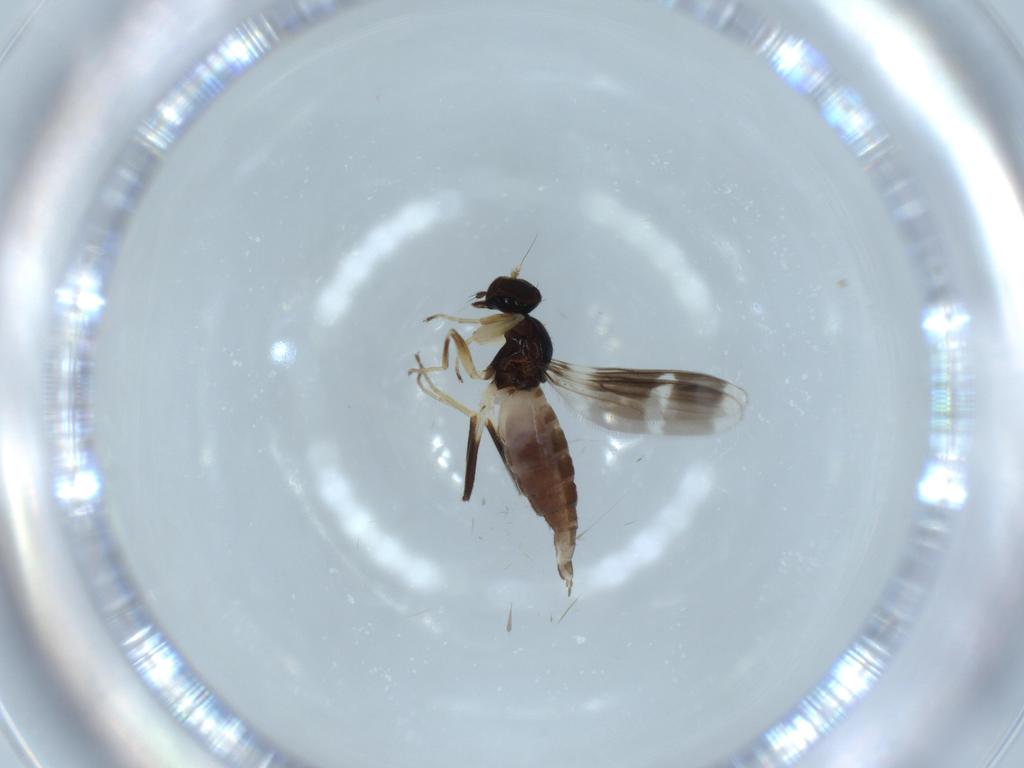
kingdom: Animalia
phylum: Arthropoda
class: Insecta
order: Diptera
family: Hybotidae
